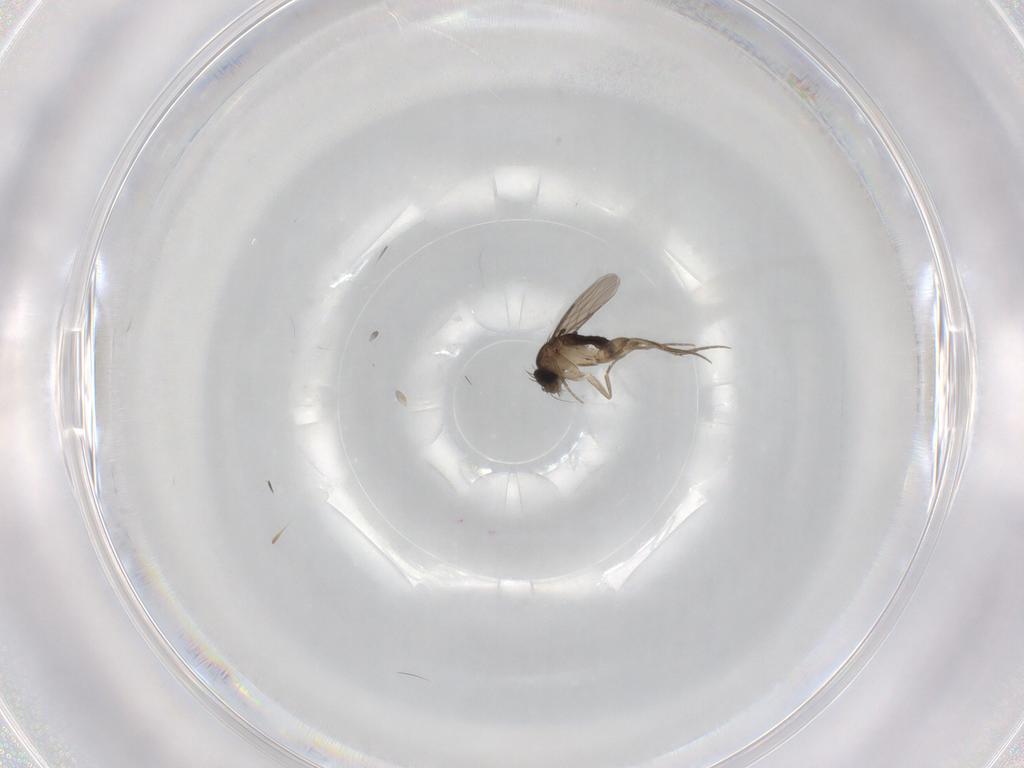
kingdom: Animalia
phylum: Arthropoda
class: Insecta
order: Diptera
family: Phoridae
